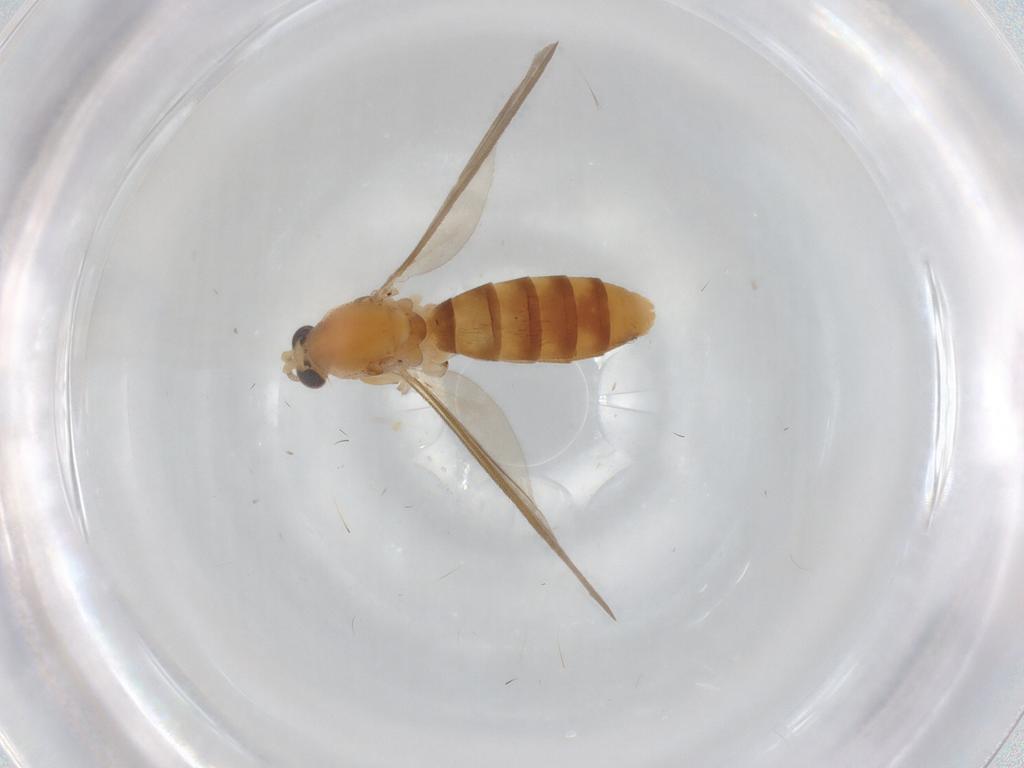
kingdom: Animalia
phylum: Arthropoda
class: Insecta
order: Diptera
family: Mycetophilidae
